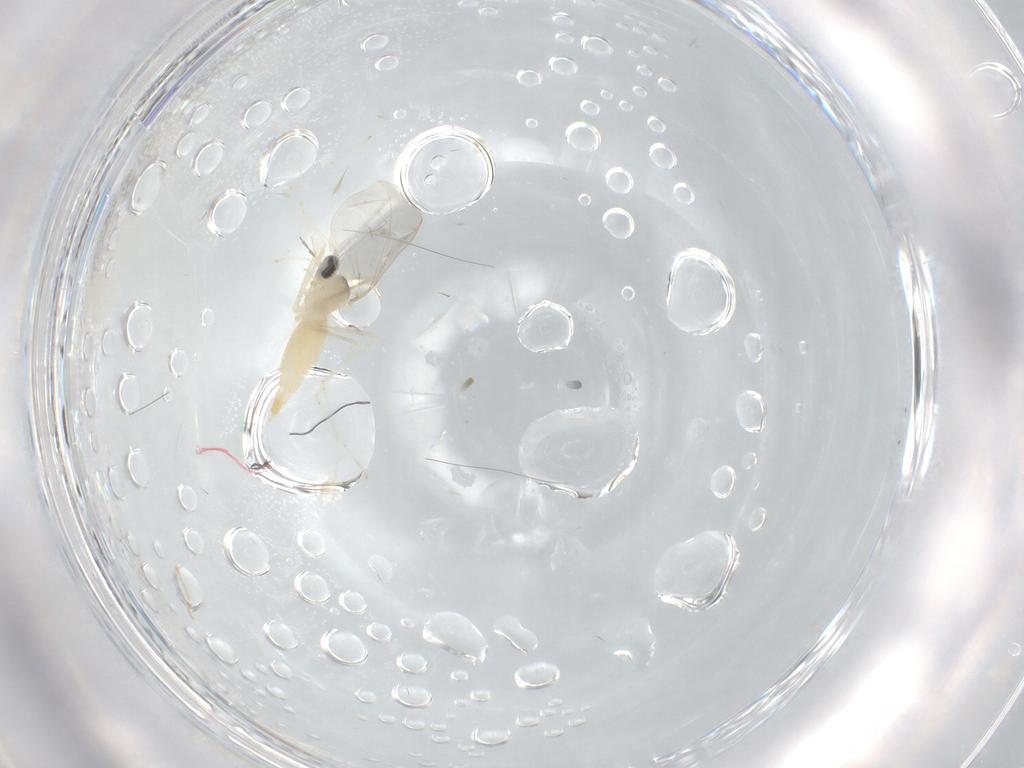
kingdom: Animalia
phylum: Arthropoda
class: Insecta
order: Diptera
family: Cecidomyiidae
